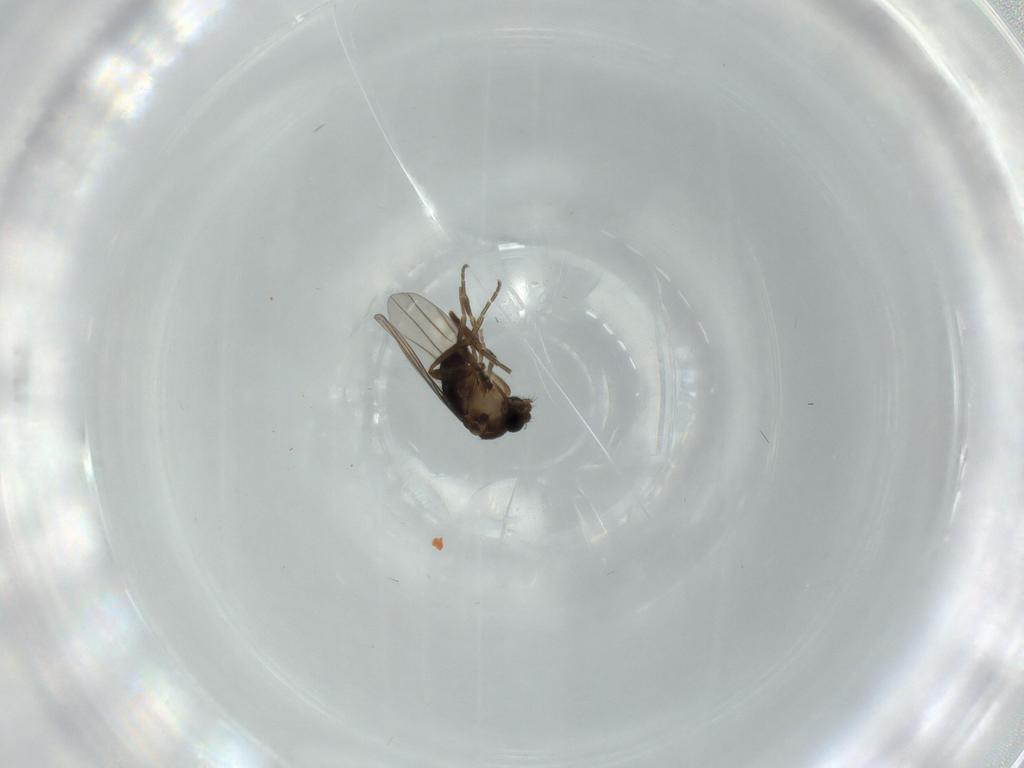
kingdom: Animalia
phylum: Arthropoda
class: Insecta
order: Diptera
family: Phoridae
